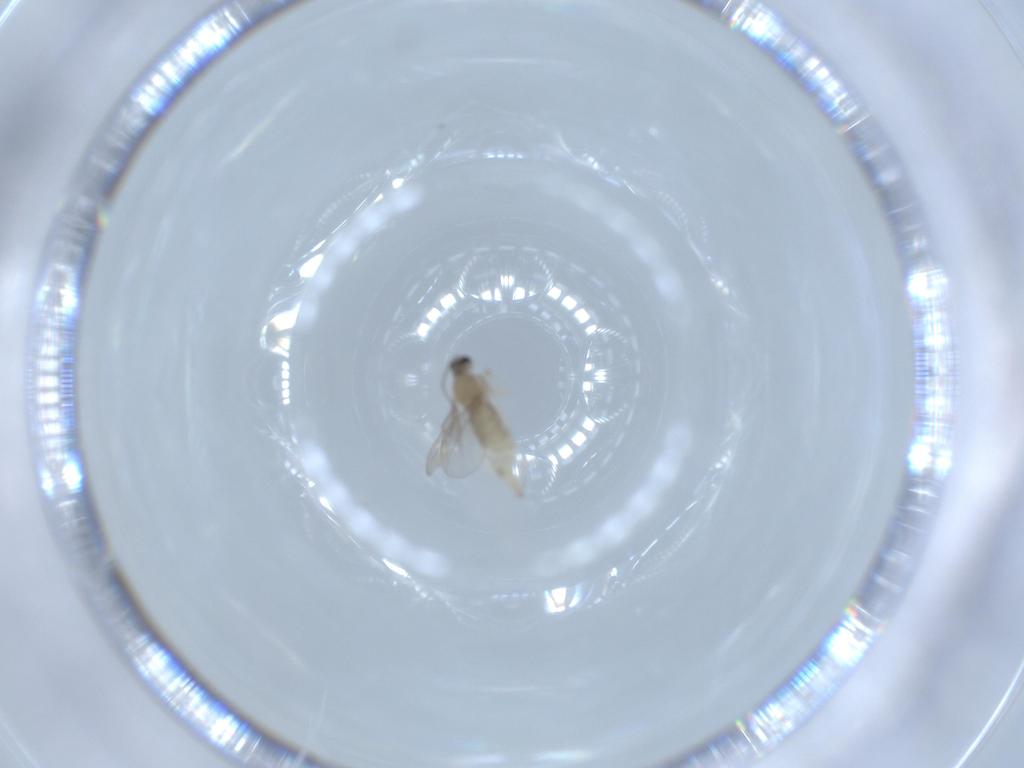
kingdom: Animalia
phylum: Arthropoda
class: Insecta
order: Diptera
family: Cecidomyiidae
